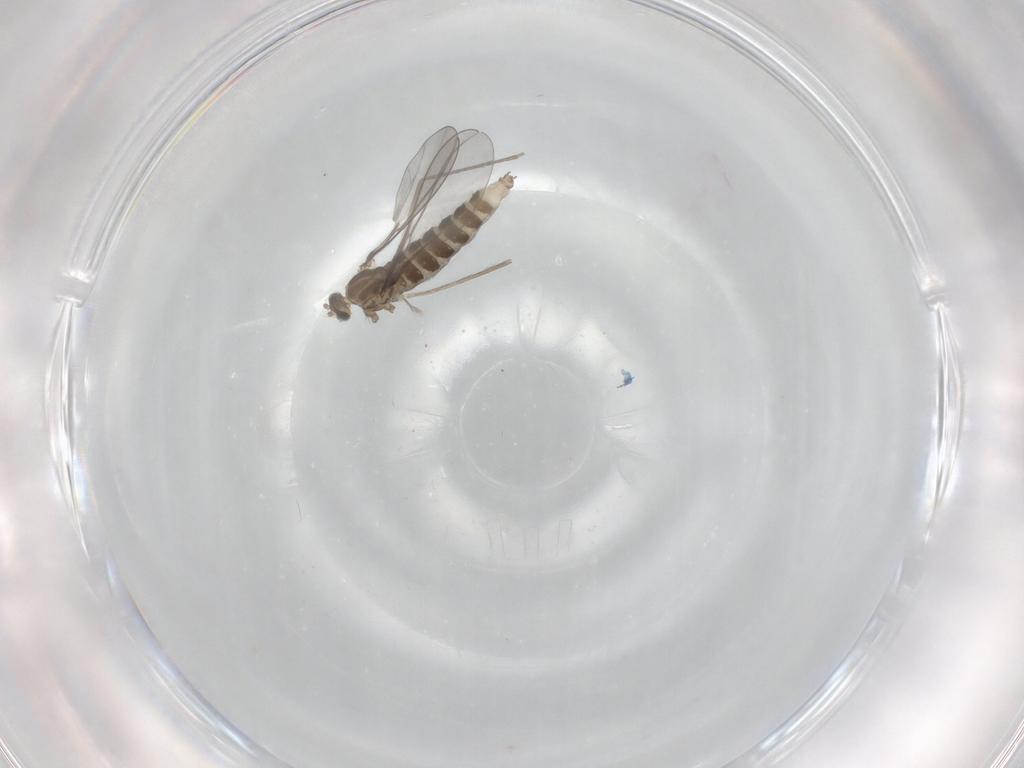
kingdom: Animalia
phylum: Arthropoda
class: Insecta
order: Diptera
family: Cecidomyiidae
